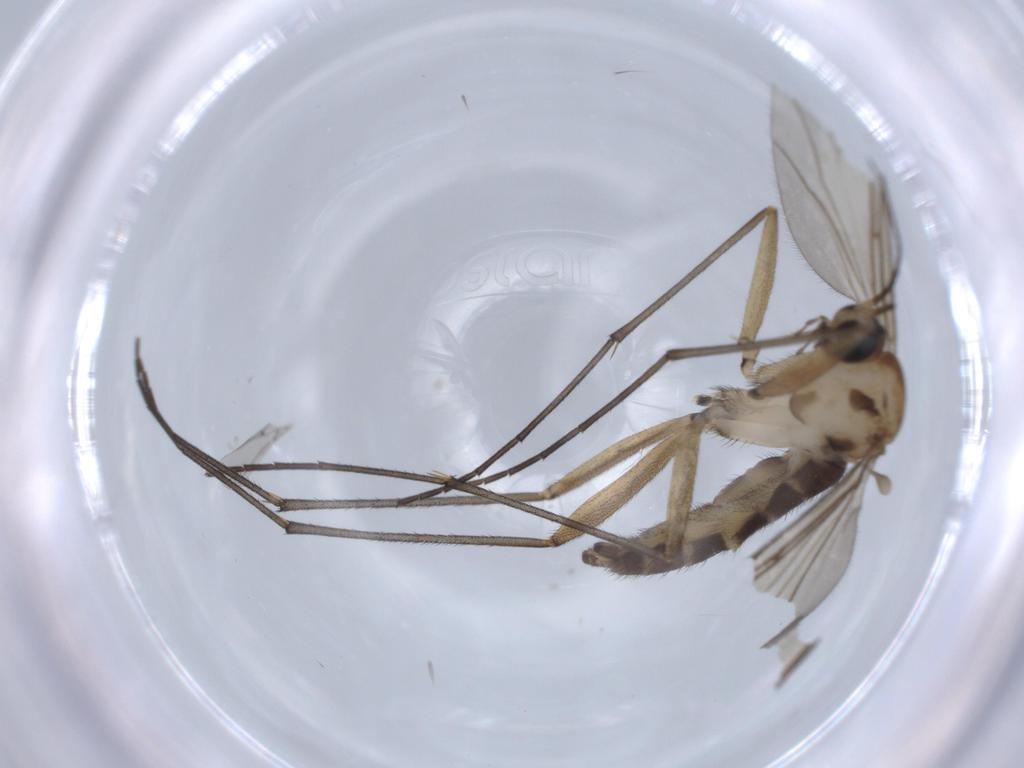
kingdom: Animalia
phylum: Arthropoda
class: Insecta
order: Diptera
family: Sciaridae
